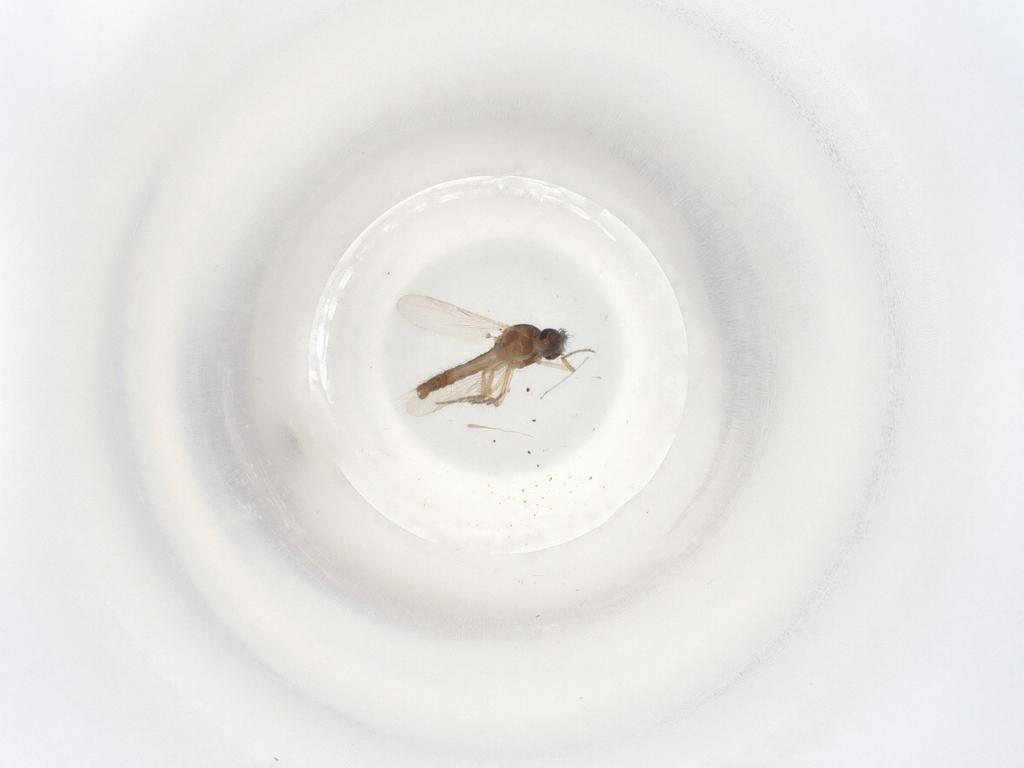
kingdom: Animalia
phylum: Arthropoda
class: Insecta
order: Diptera
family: Ceratopogonidae
